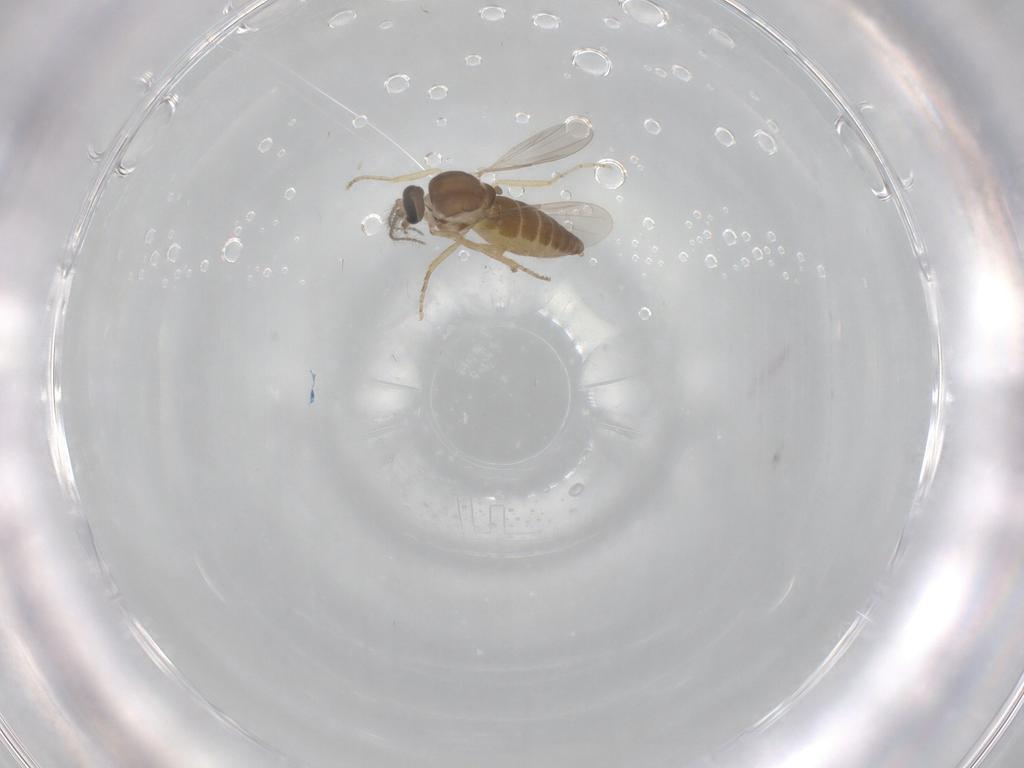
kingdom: Animalia
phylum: Arthropoda
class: Insecta
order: Diptera
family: Ceratopogonidae
